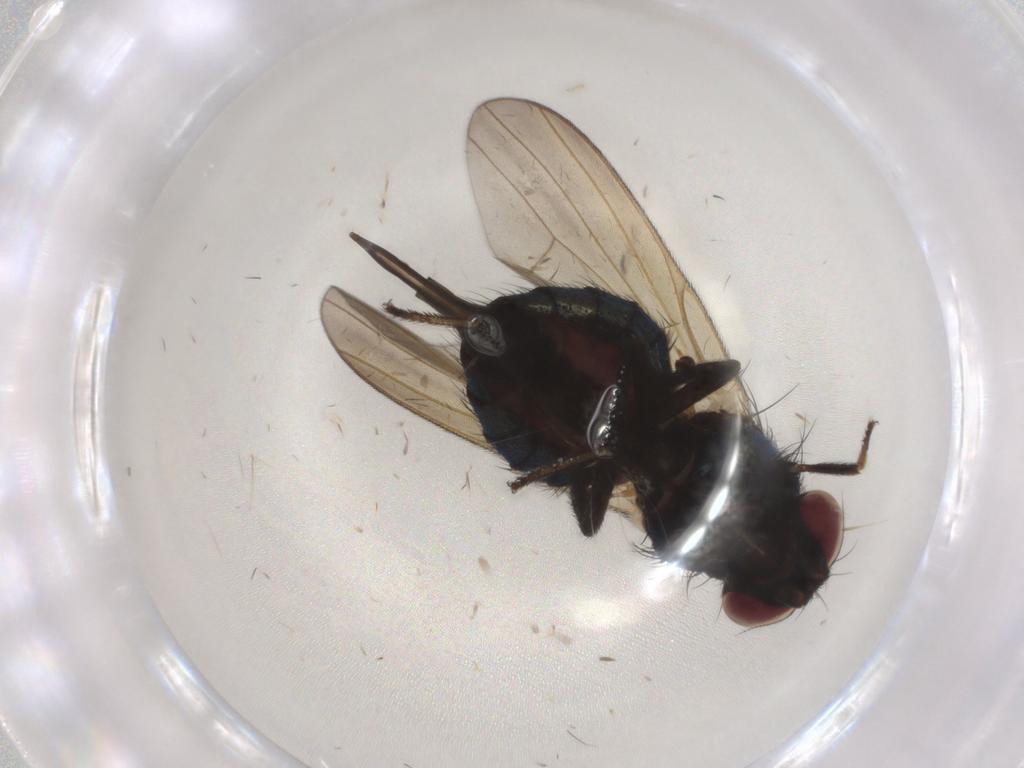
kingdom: Animalia
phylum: Arthropoda
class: Insecta
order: Diptera
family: Lonchaeidae
